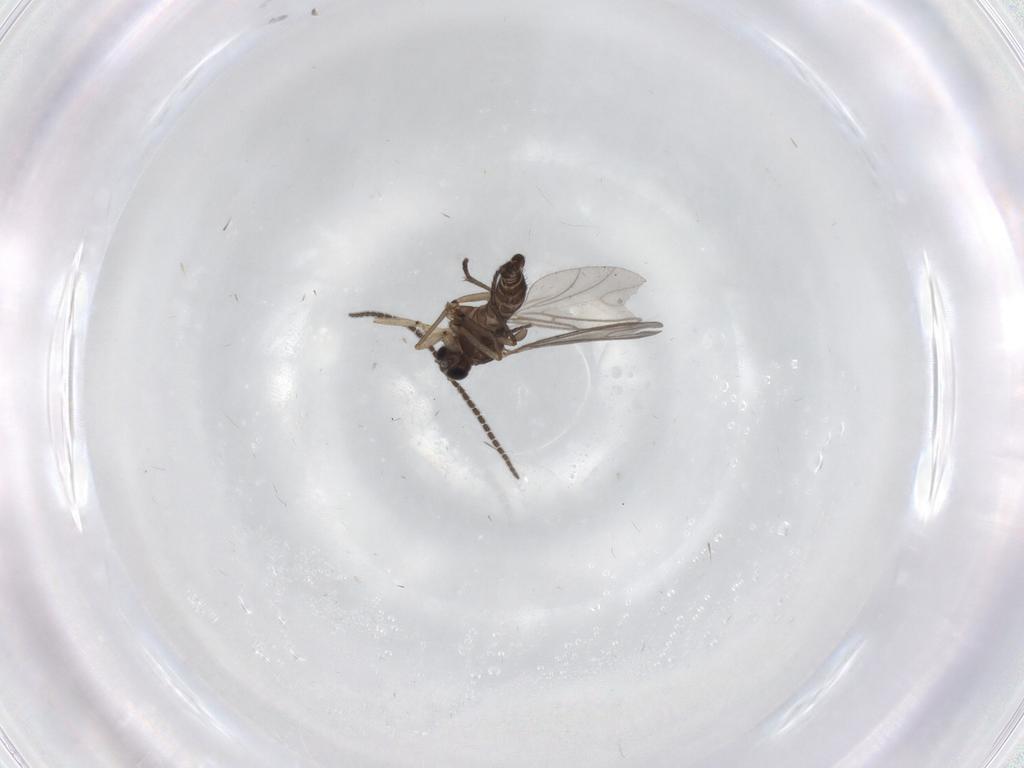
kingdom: Animalia
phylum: Arthropoda
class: Insecta
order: Diptera
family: Sciaridae
